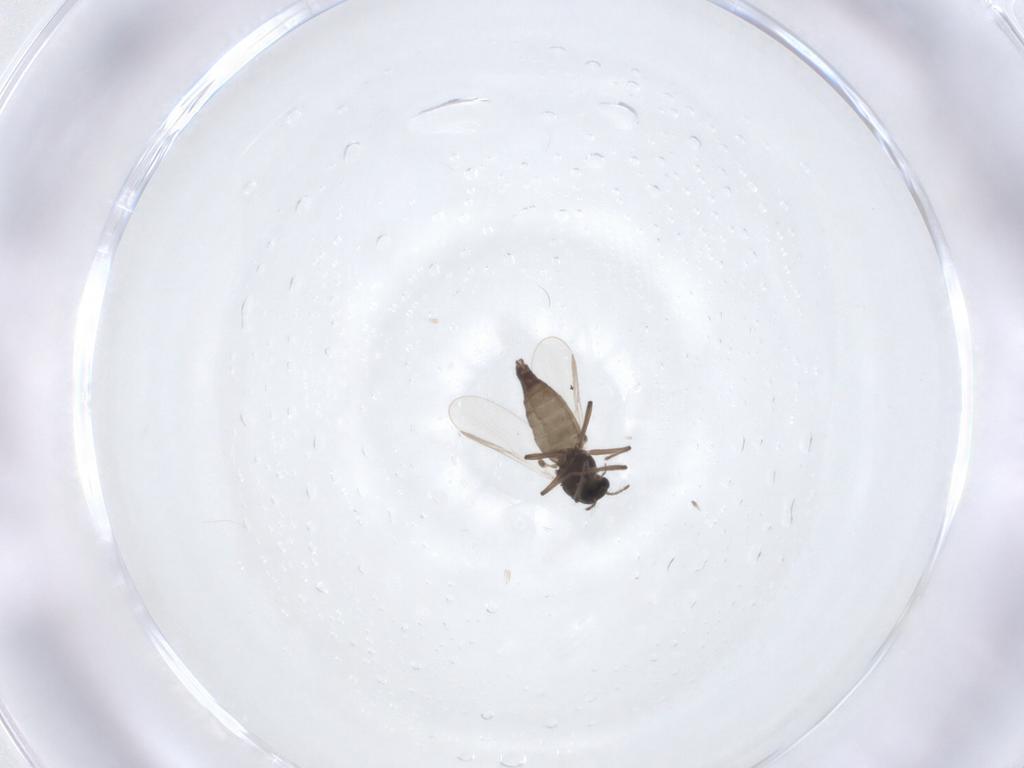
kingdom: Animalia
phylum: Arthropoda
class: Insecta
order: Diptera
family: Chironomidae
